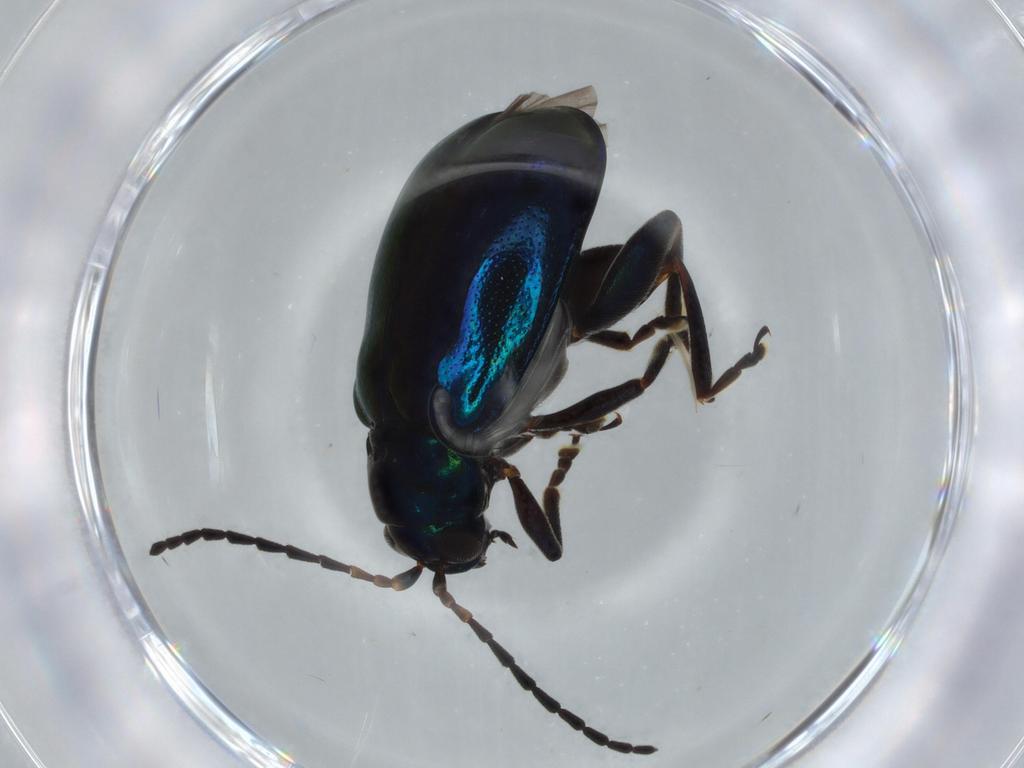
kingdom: Animalia
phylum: Arthropoda
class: Insecta
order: Coleoptera
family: Chrysomelidae
